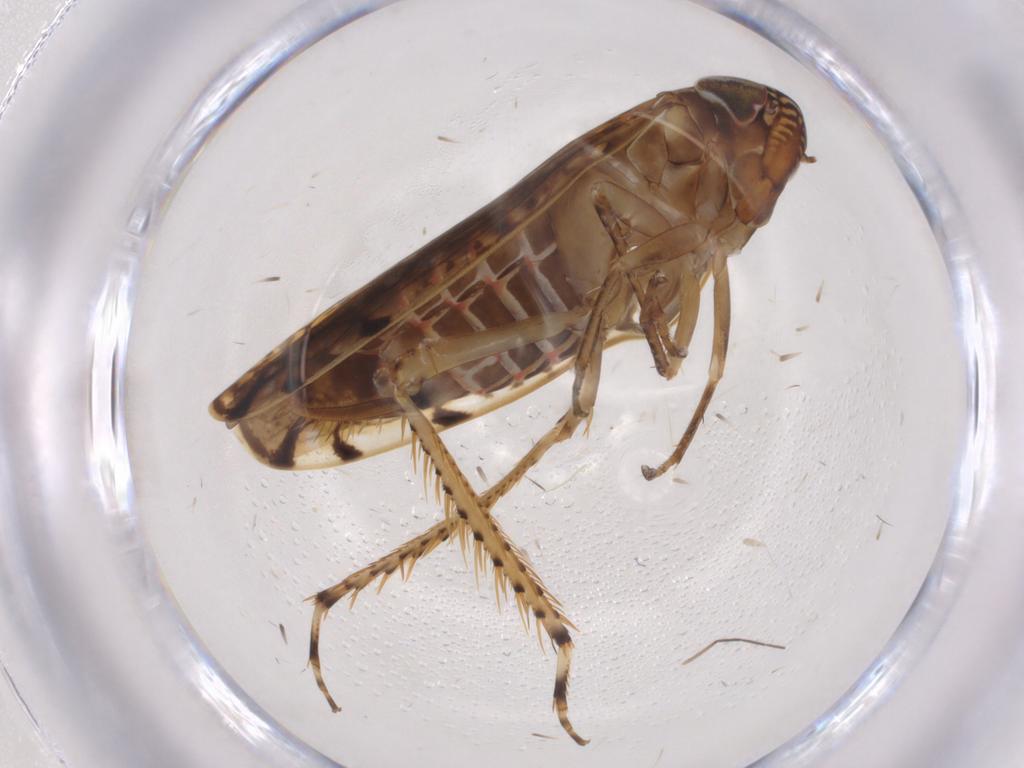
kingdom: Animalia
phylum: Arthropoda
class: Insecta
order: Hemiptera
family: Cicadellidae
